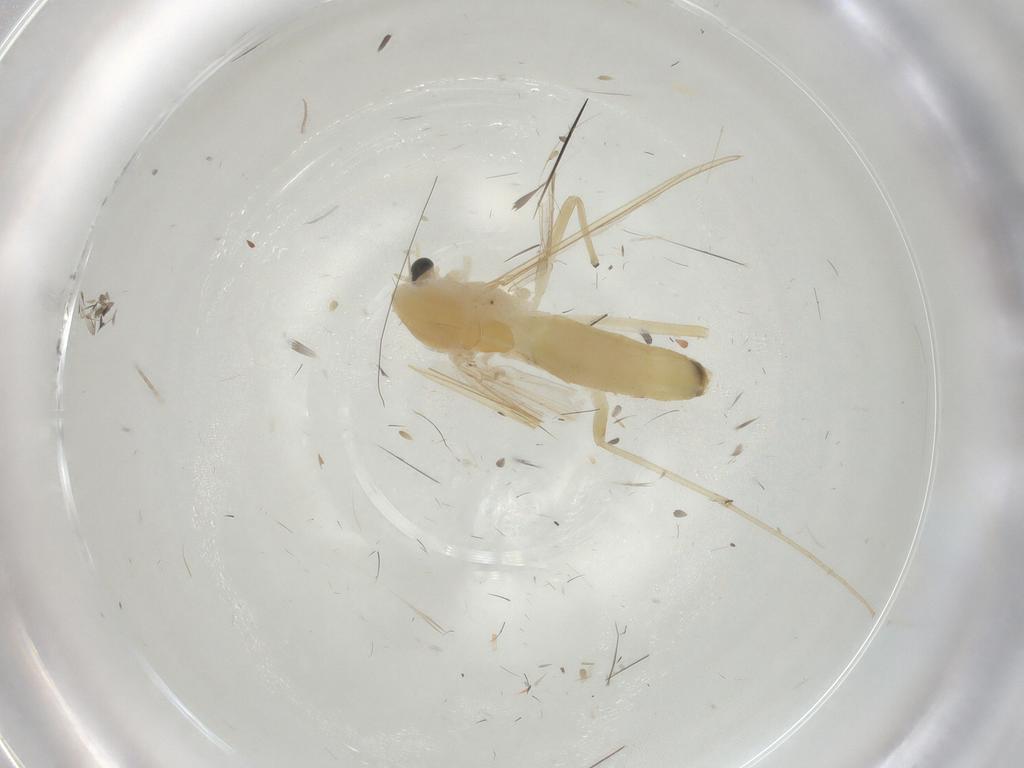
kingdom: Animalia
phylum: Arthropoda
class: Insecta
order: Diptera
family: Chironomidae
